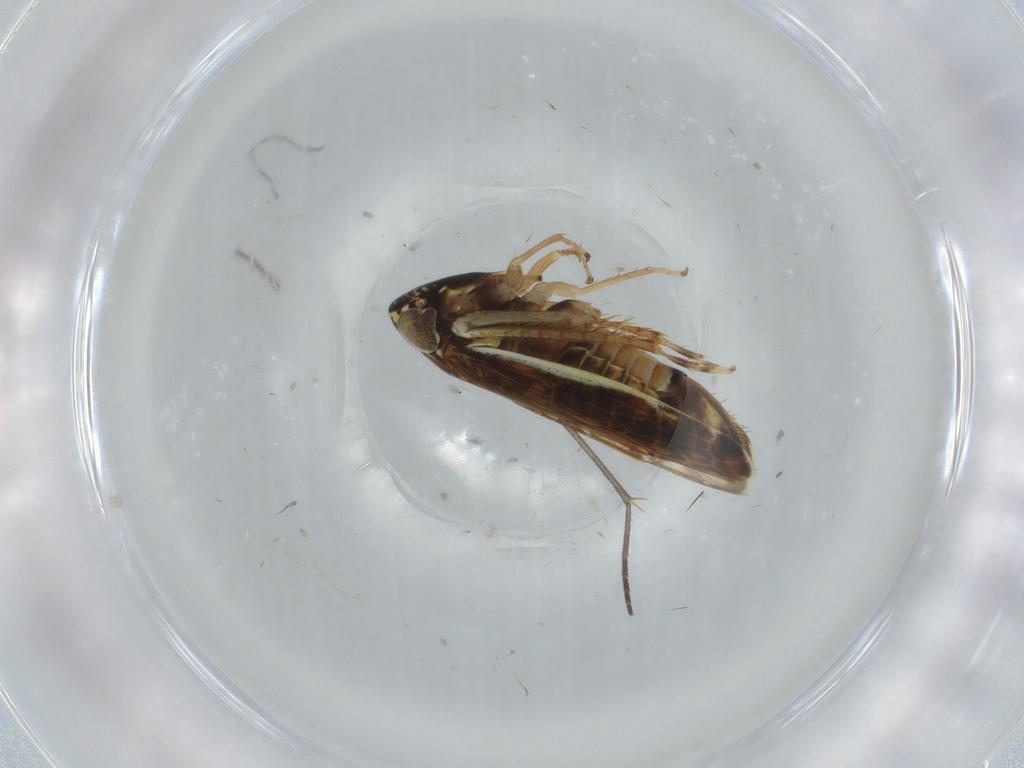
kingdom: Animalia
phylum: Arthropoda
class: Insecta
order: Hemiptera
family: Cicadellidae
